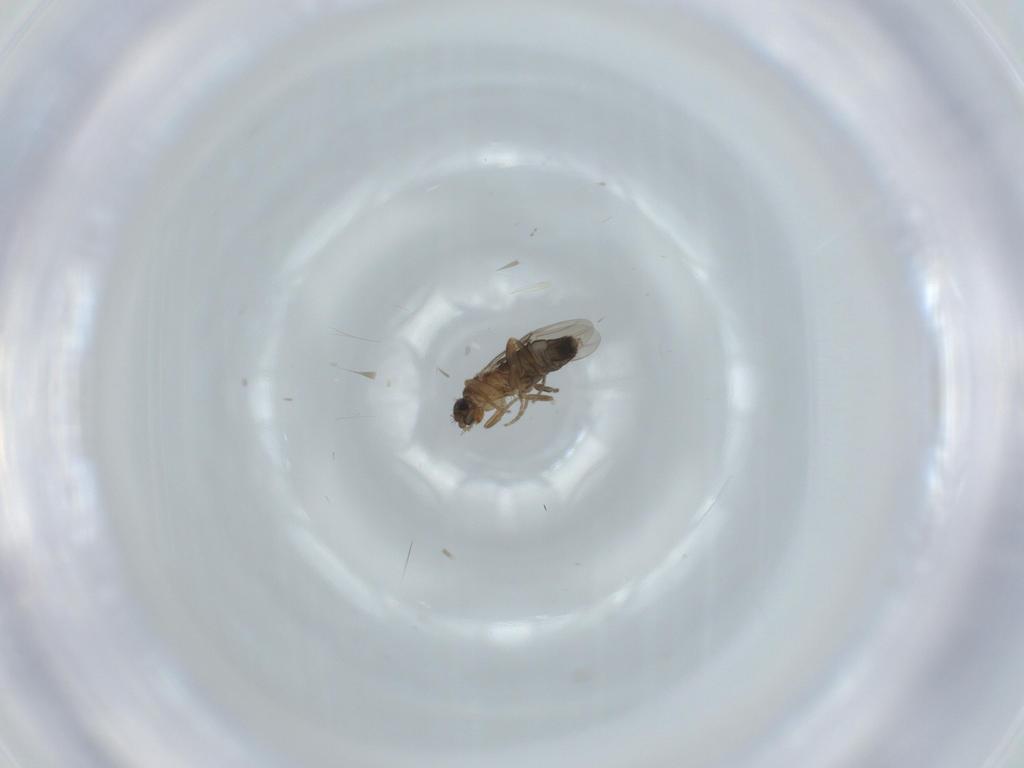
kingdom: Animalia
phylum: Arthropoda
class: Insecta
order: Diptera
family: Phoridae
